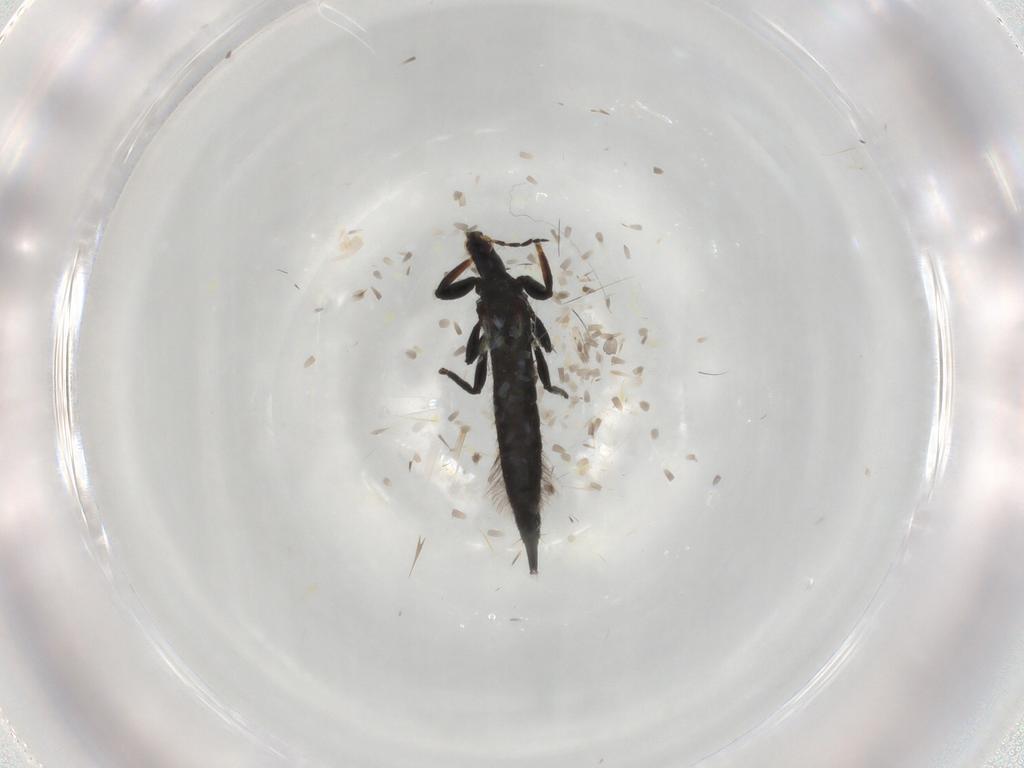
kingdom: Animalia
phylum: Arthropoda
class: Insecta
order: Thysanoptera
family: Phlaeothripidae
